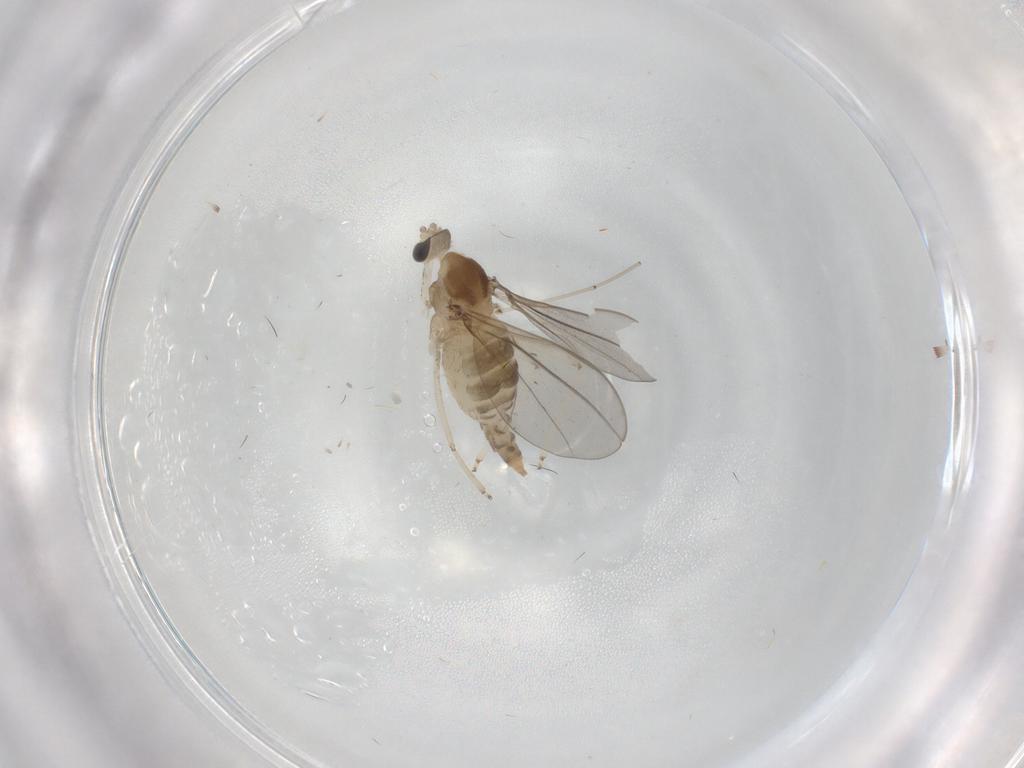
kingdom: Animalia
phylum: Arthropoda
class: Insecta
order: Diptera
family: Cecidomyiidae
